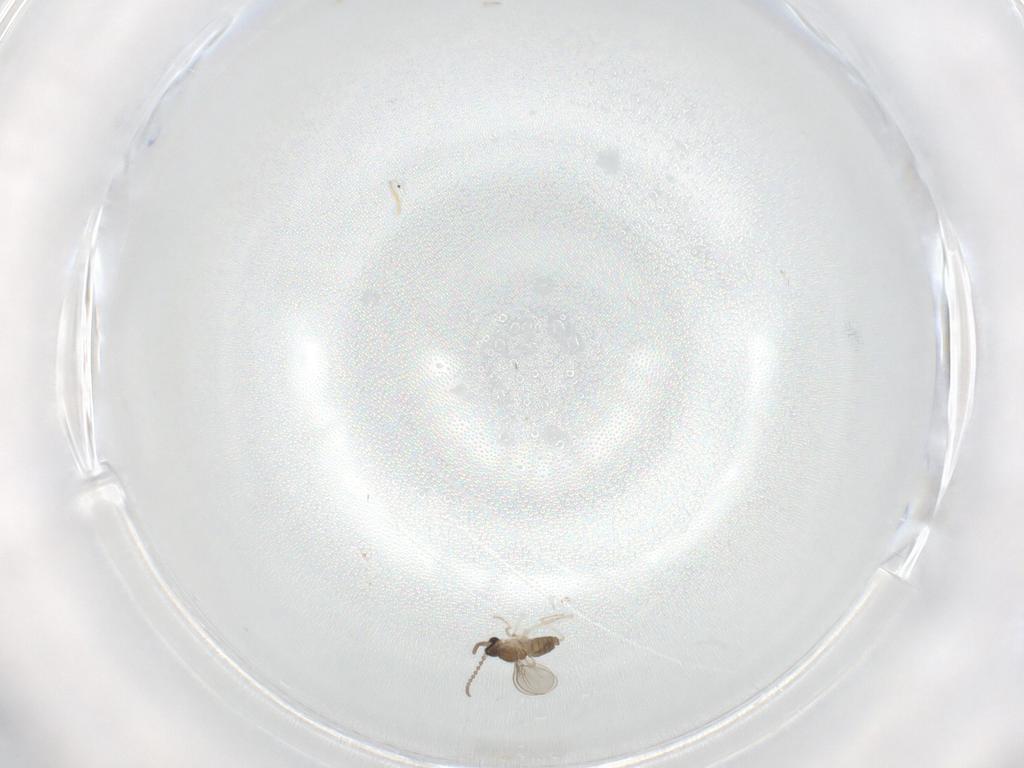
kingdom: Animalia
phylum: Arthropoda
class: Insecta
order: Diptera
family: Cecidomyiidae
